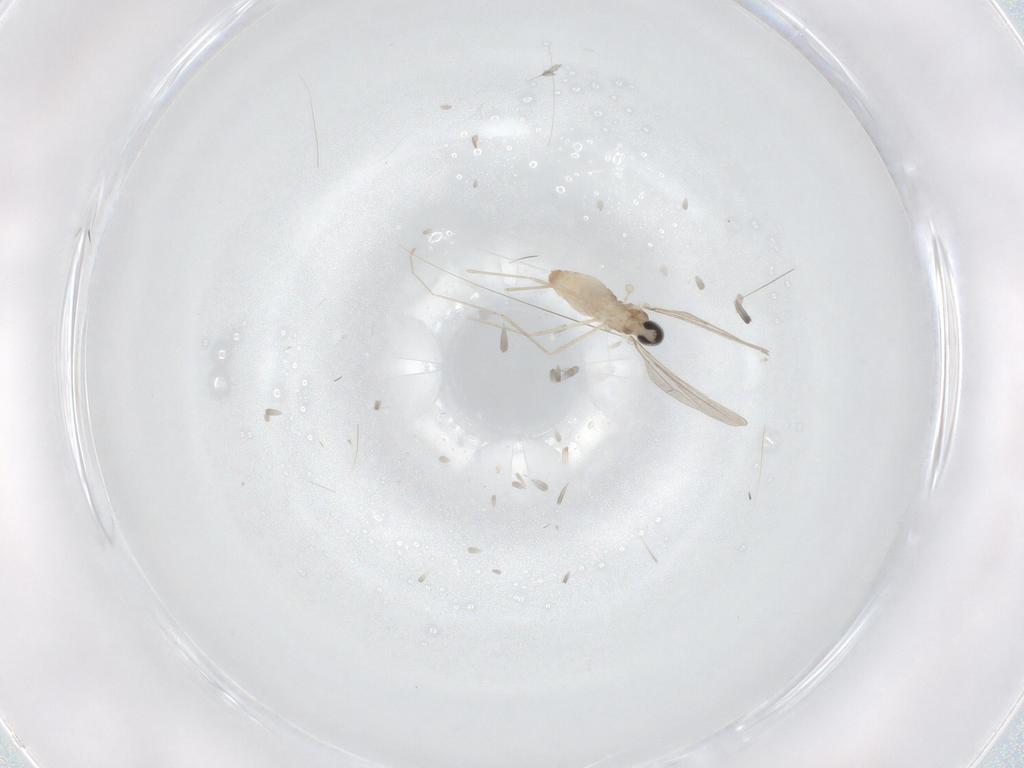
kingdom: Animalia
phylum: Arthropoda
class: Insecta
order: Diptera
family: Cecidomyiidae
